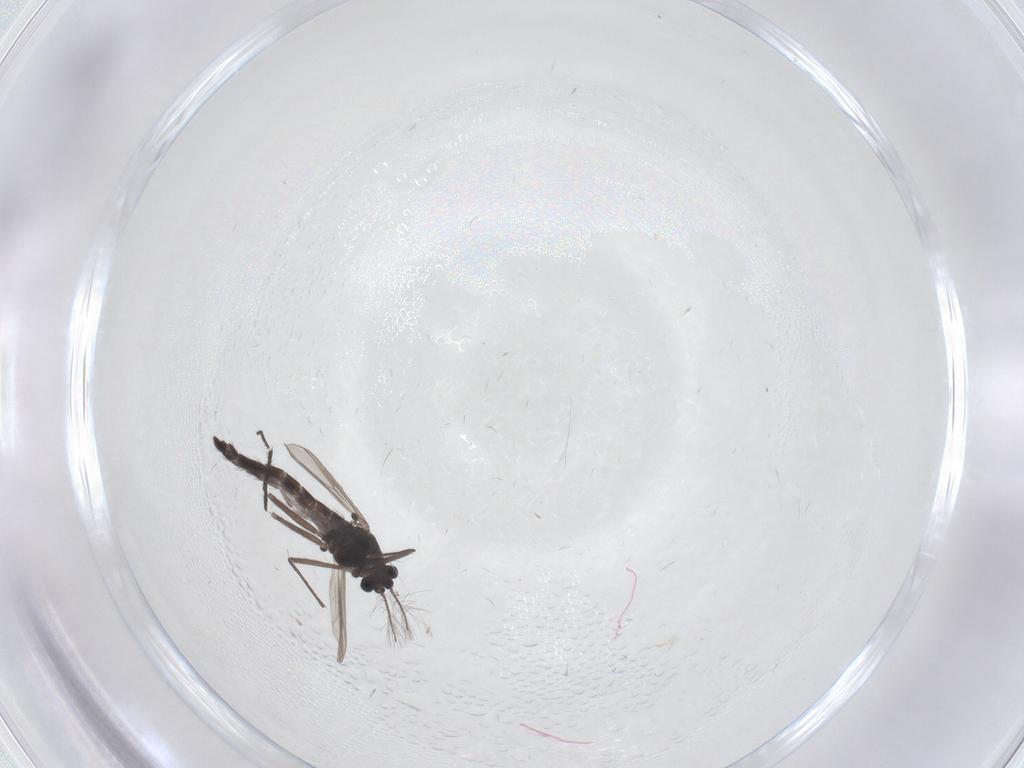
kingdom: Animalia
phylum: Arthropoda
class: Insecta
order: Diptera
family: Chironomidae
